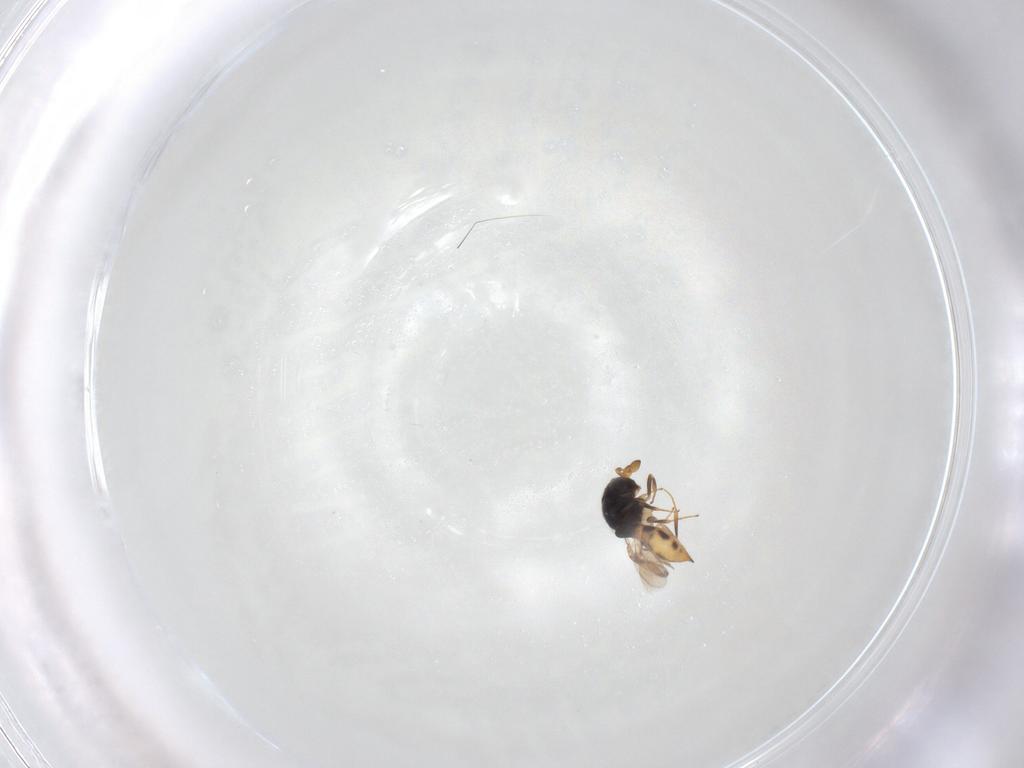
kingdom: Animalia
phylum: Arthropoda
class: Insecta
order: Hymenoptera
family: Scelionidae
